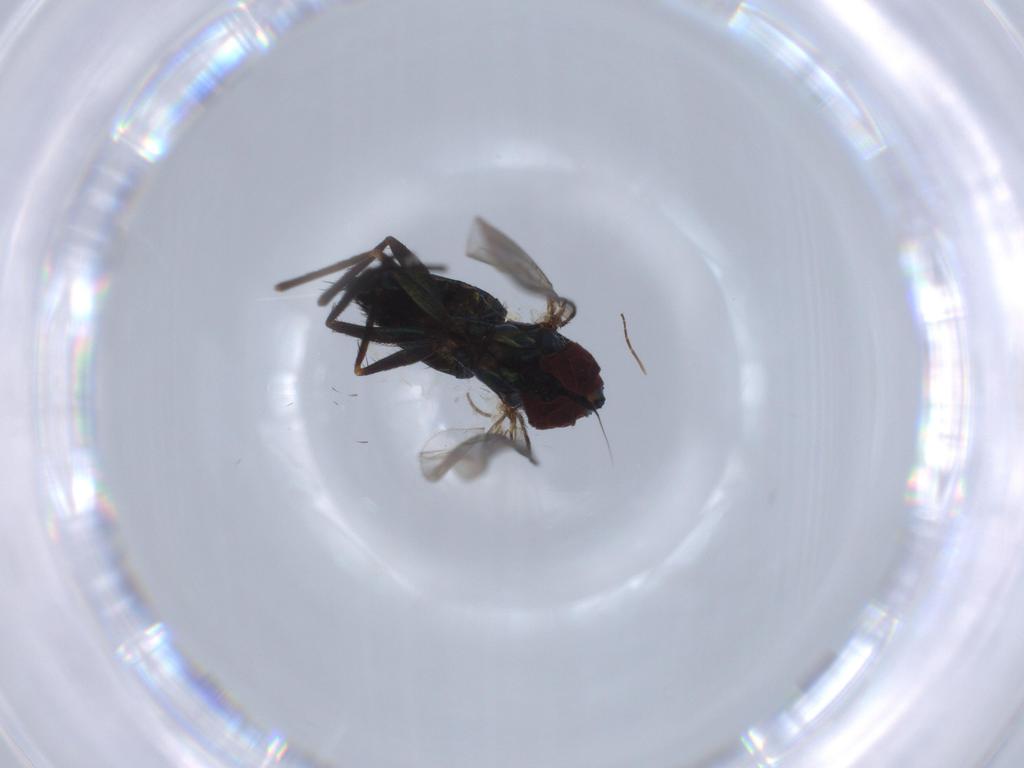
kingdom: Animalia
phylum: Arthropoda
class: Insecta
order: Diptera
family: Dolichopodidae
